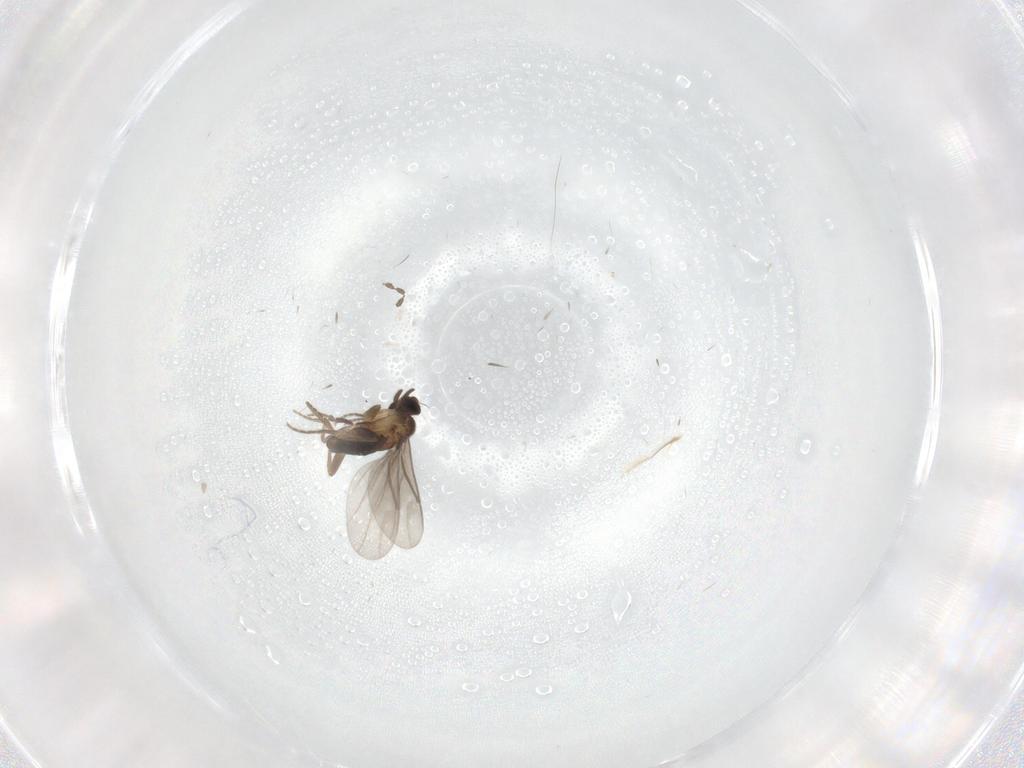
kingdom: Animalia
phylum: Arthropoda
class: Insecta
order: Diptera
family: Cecidomyiidae
